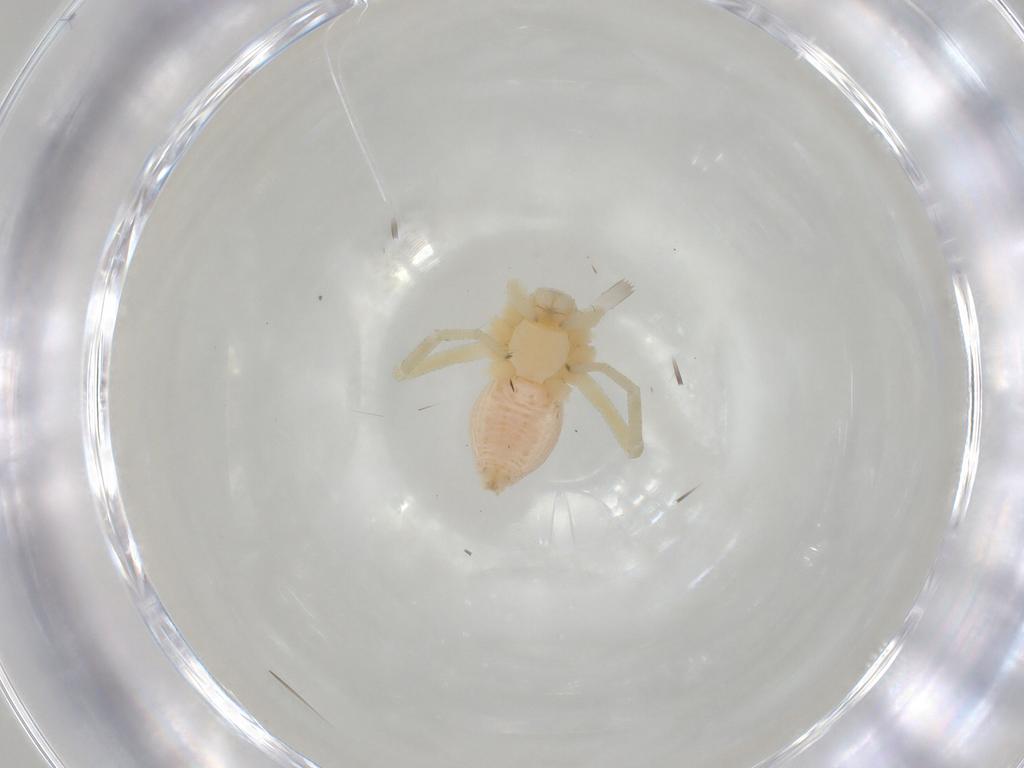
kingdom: Animalia
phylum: Arthropoda
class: Arachnida
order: Araneae
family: Philodromidae
